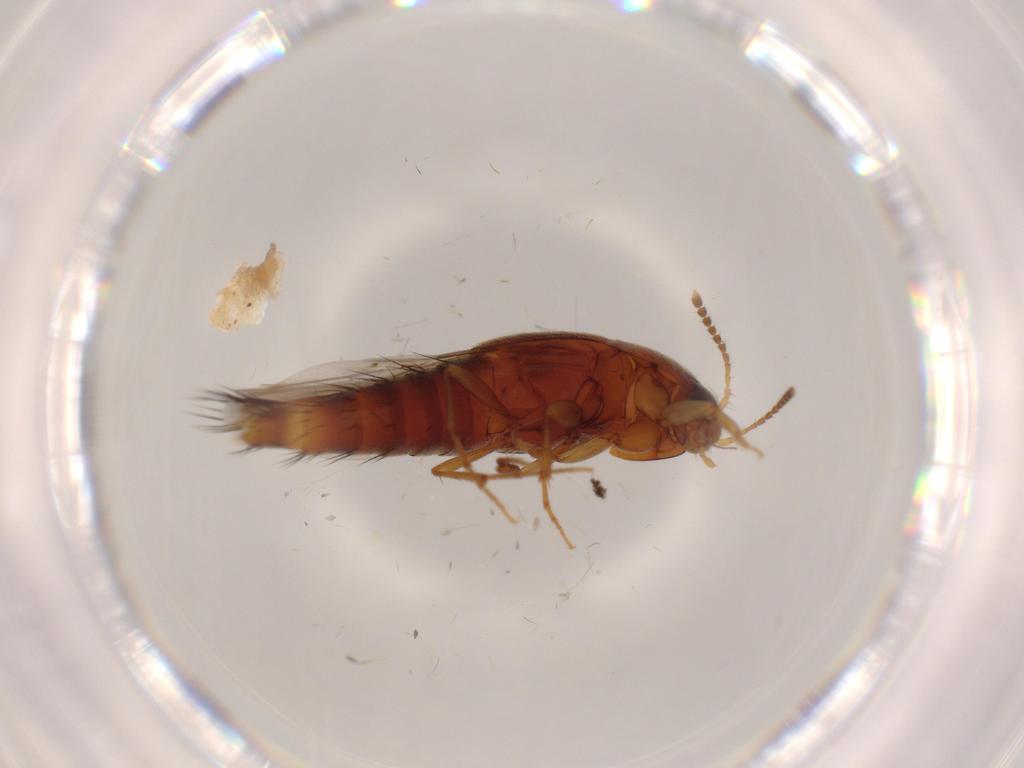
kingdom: Animalia
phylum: Arthropoda
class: Insecta
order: Coleoptera
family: Staphylinidae
